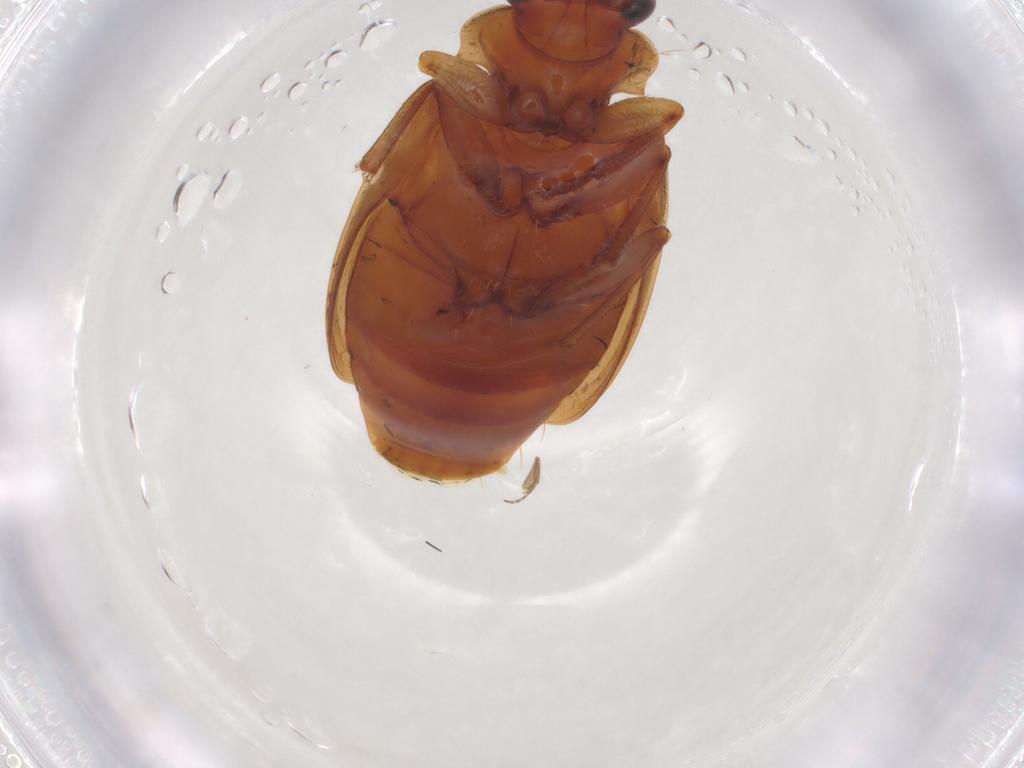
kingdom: Animalia
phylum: Arthropoda
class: Insecta
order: Coleoptera
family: Carabidae
